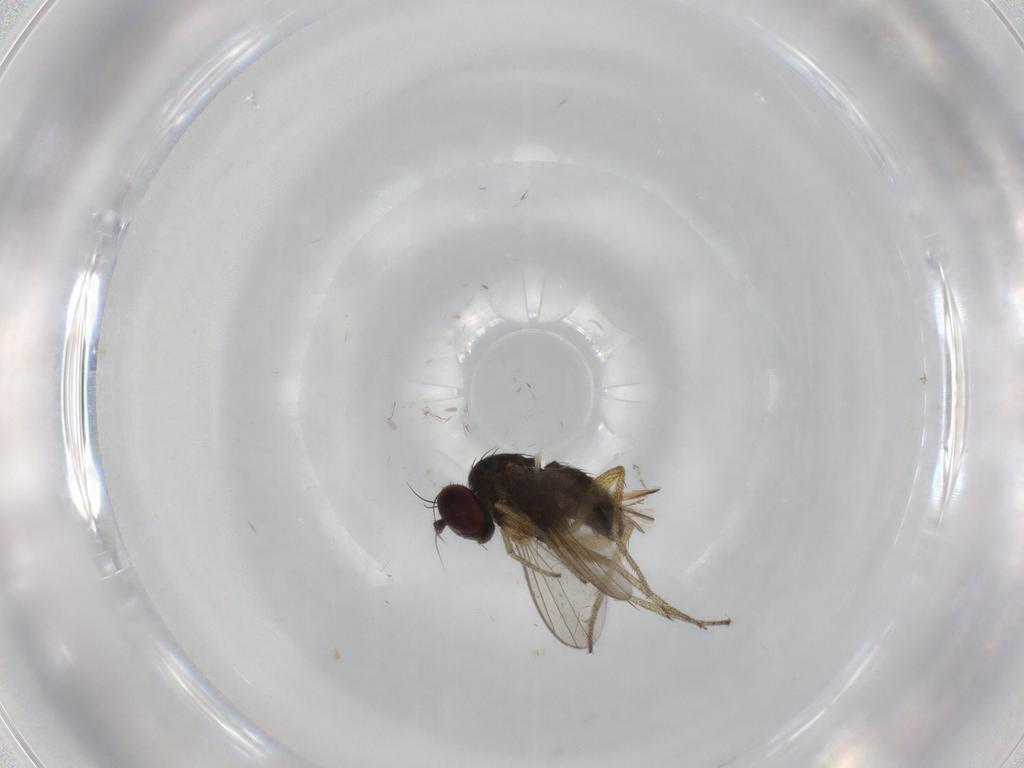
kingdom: Animalia
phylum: Arthropoda
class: Insecta
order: Diptera
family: Dolichopodidae
